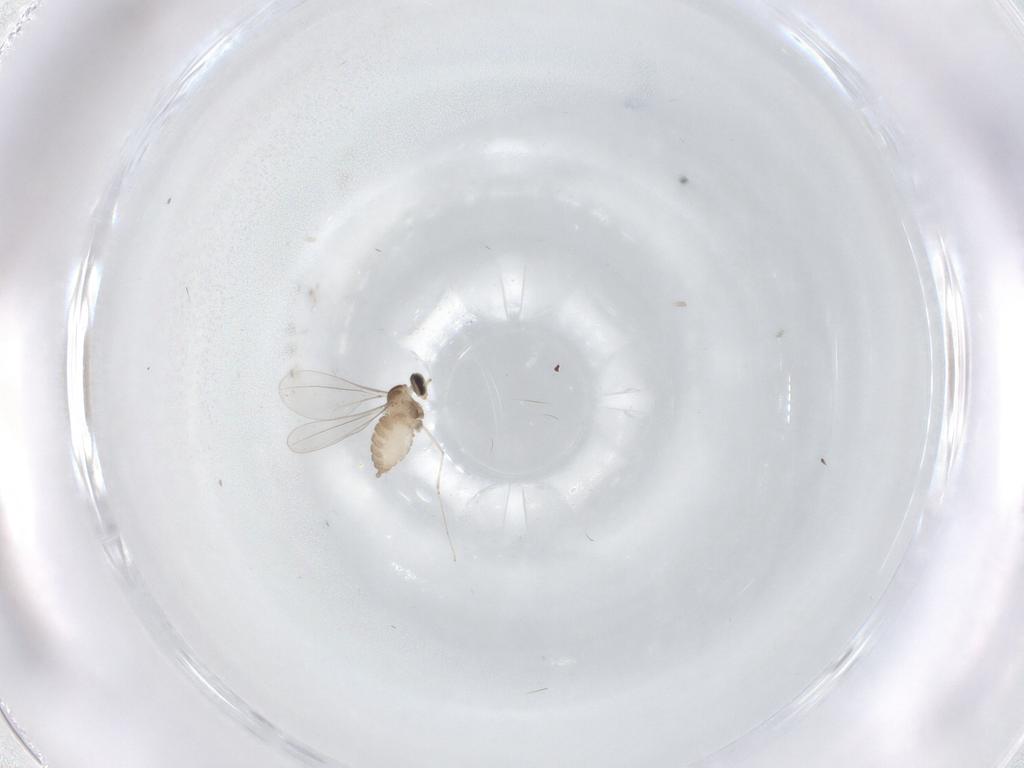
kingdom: Animalia
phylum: Arthropoda
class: Insecta
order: Diptera
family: Cecidomyiidae
